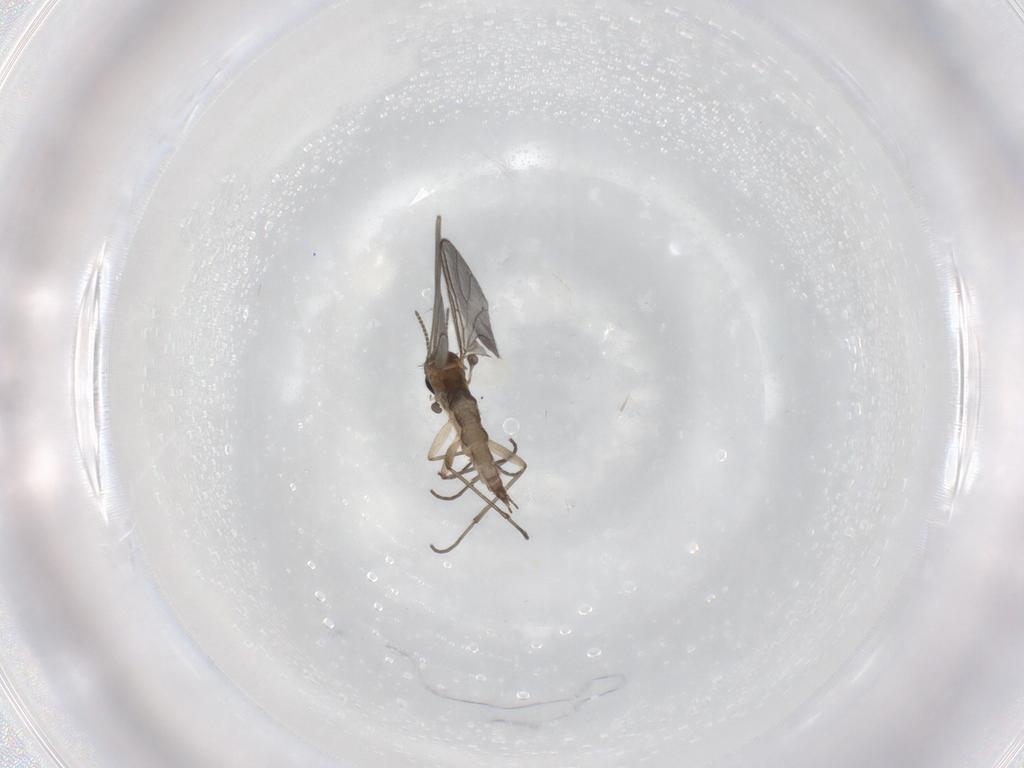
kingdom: Animalia
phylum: Arthropoda
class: Insecta
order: Diptera
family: Sciaridae
